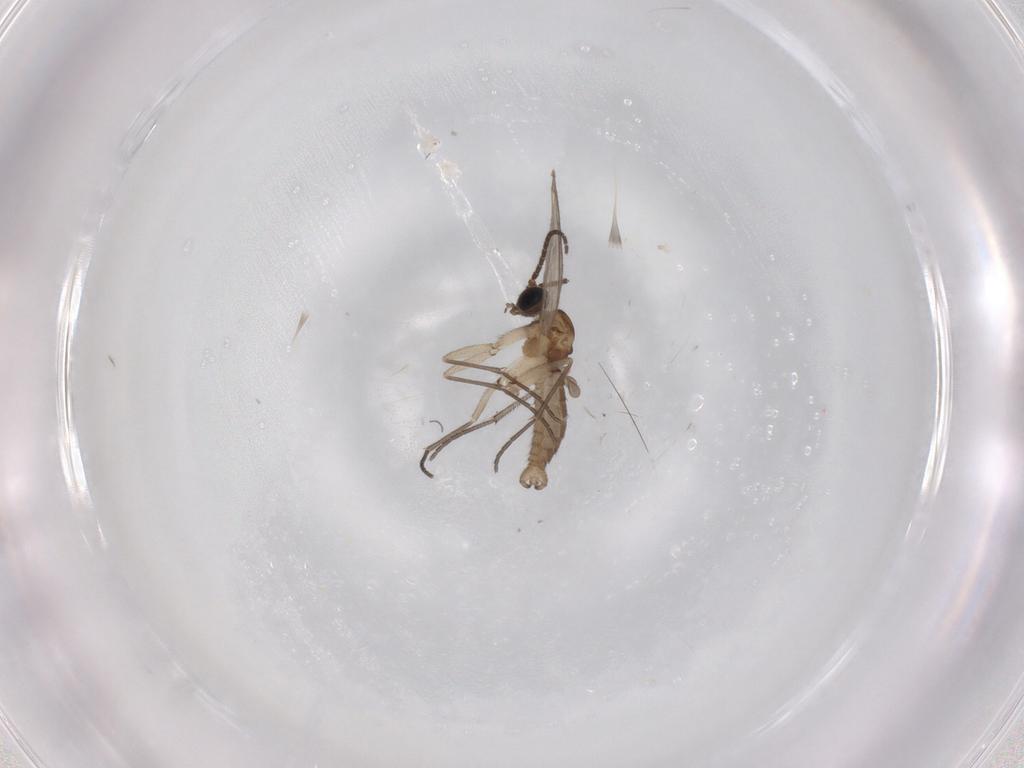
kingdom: Animalia
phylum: Arthropoda
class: Insecta
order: Diptera
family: Sciaridae
